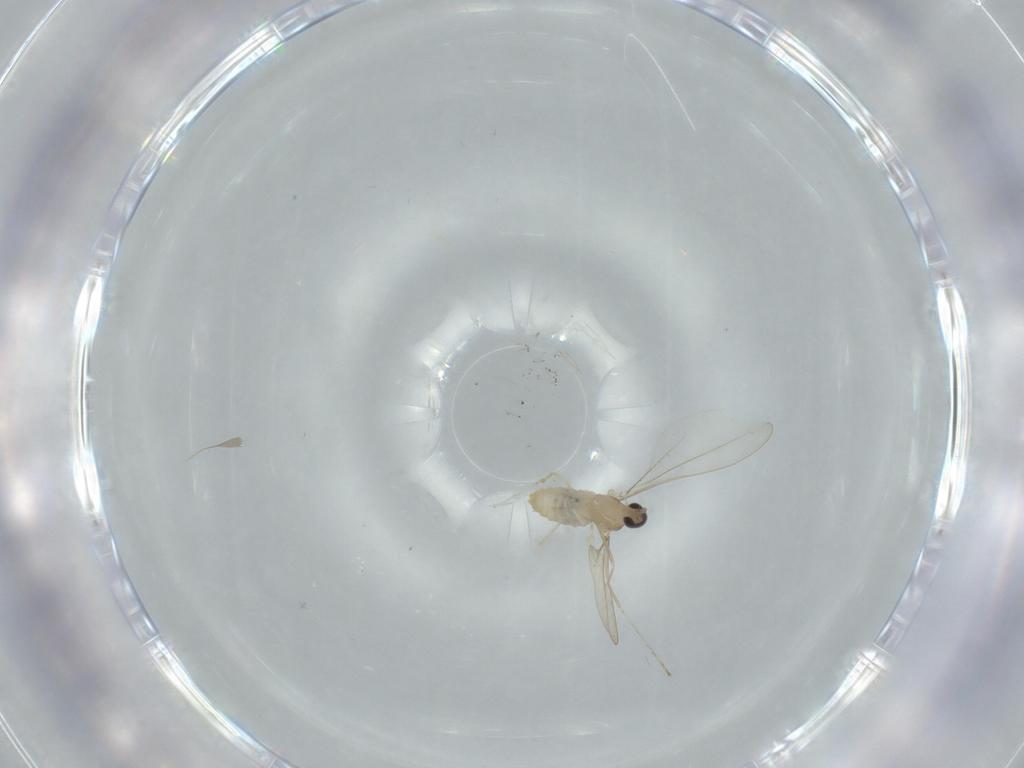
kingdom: Animalia
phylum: Arthropoda
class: Insecta
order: Diptera
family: Cecidomyiidae
